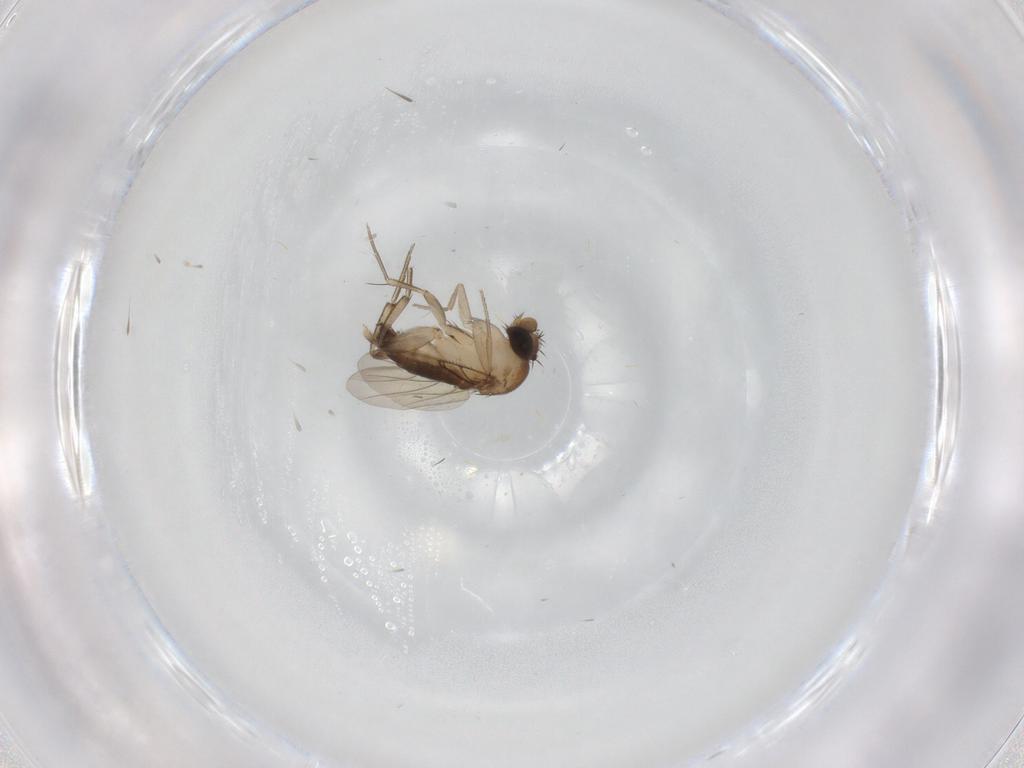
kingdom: Animalia
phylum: Arthropoda
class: Insecta
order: Diptera
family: Phoridae
